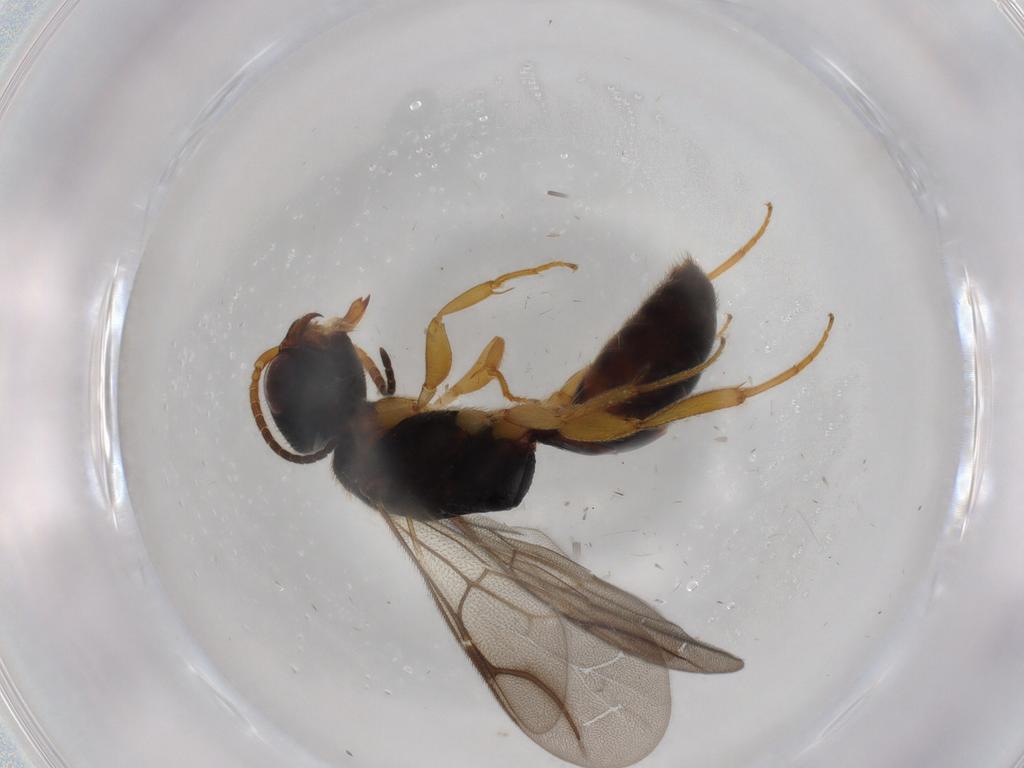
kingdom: Animalia
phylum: Arthropoda
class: Insecta
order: Hymenoptera
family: Bethylidae
